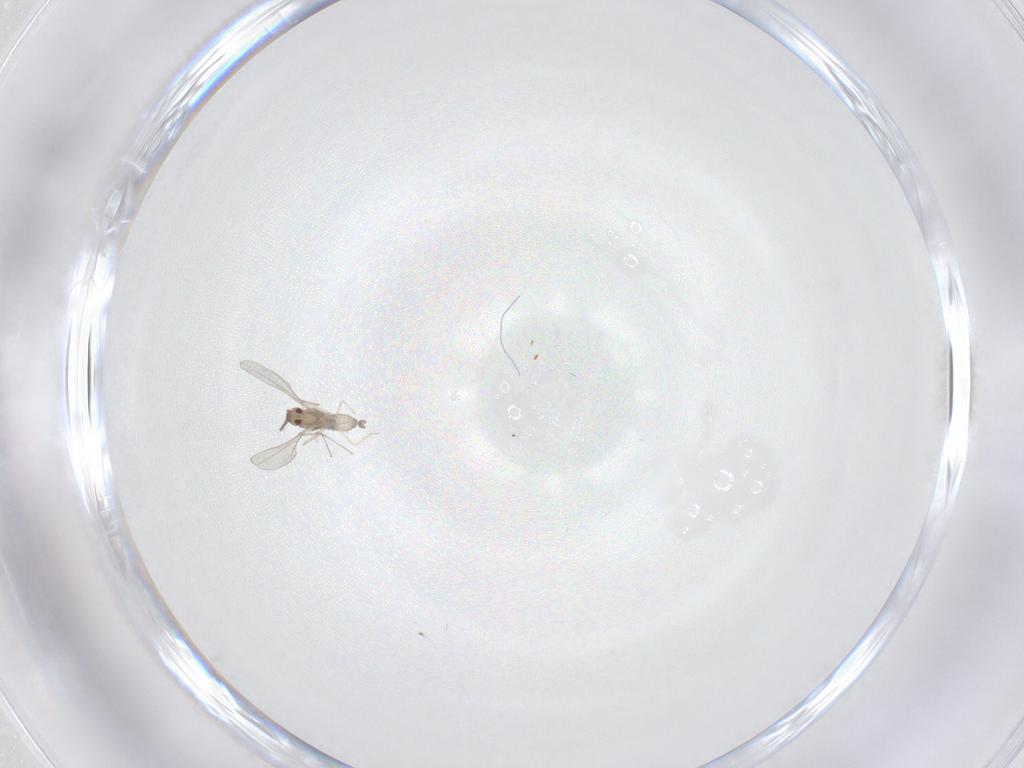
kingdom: Animalia
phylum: Arthropoda
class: Insecta
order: Diptera
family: Cecidomyiidae
